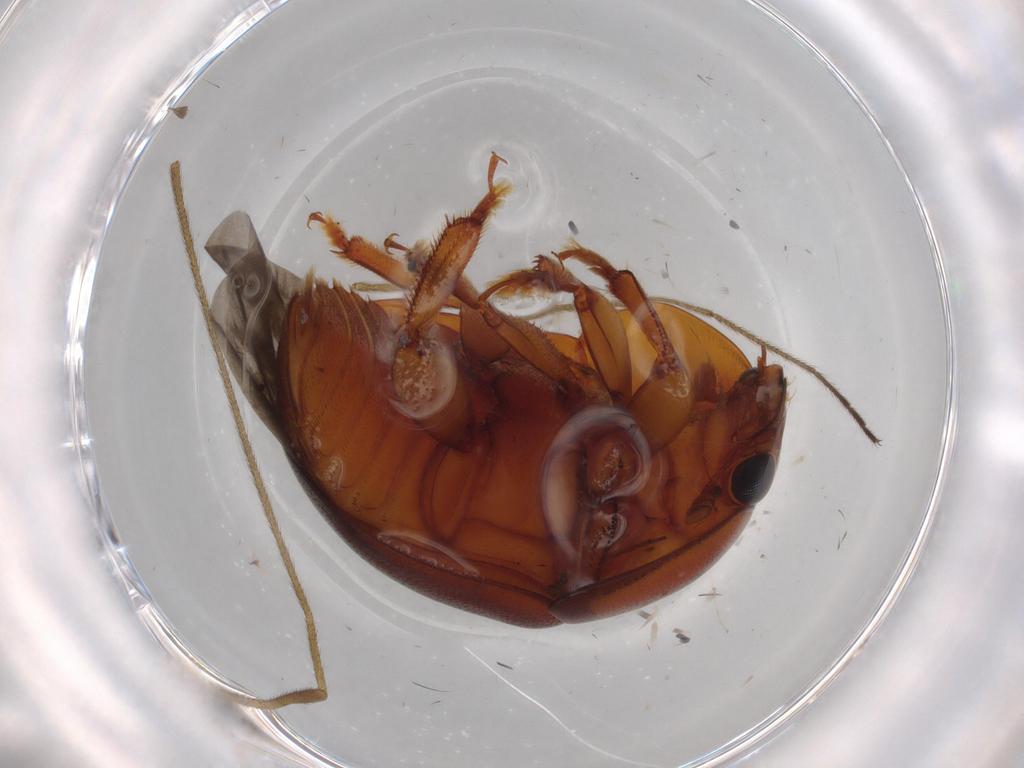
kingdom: Animalia
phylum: Arthropoda
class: Insecta
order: Coleoptera
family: Nitidulidae
